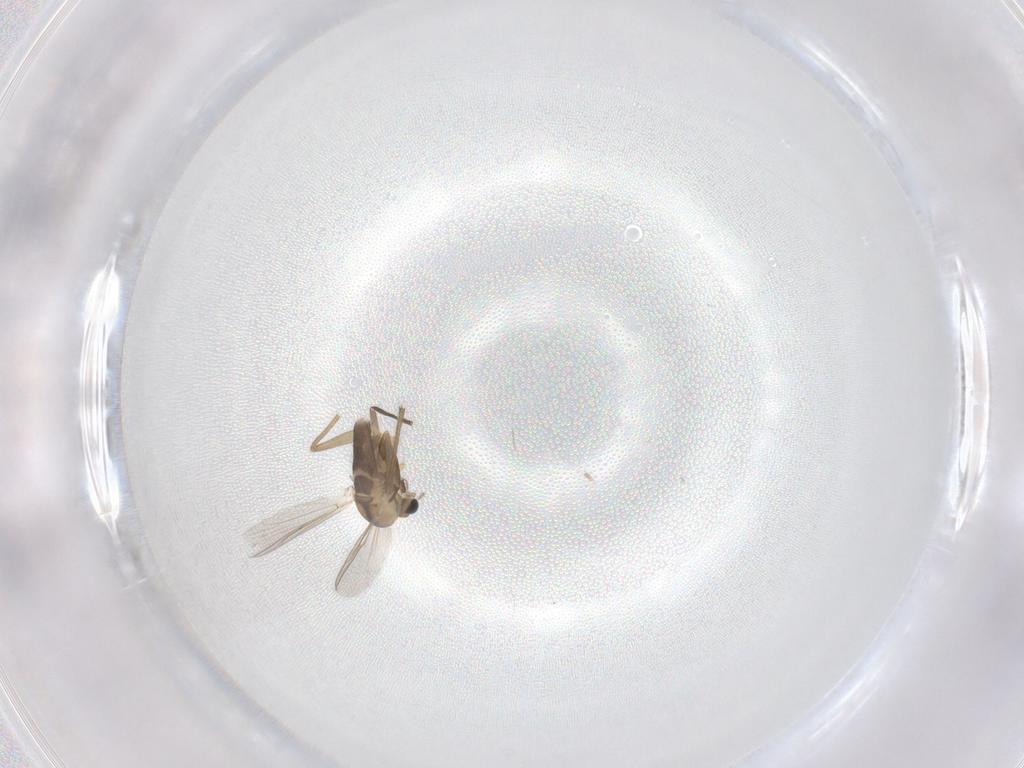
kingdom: Animalia
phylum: Arthropoda
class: Insecta
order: Diptera
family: Chironomidae
